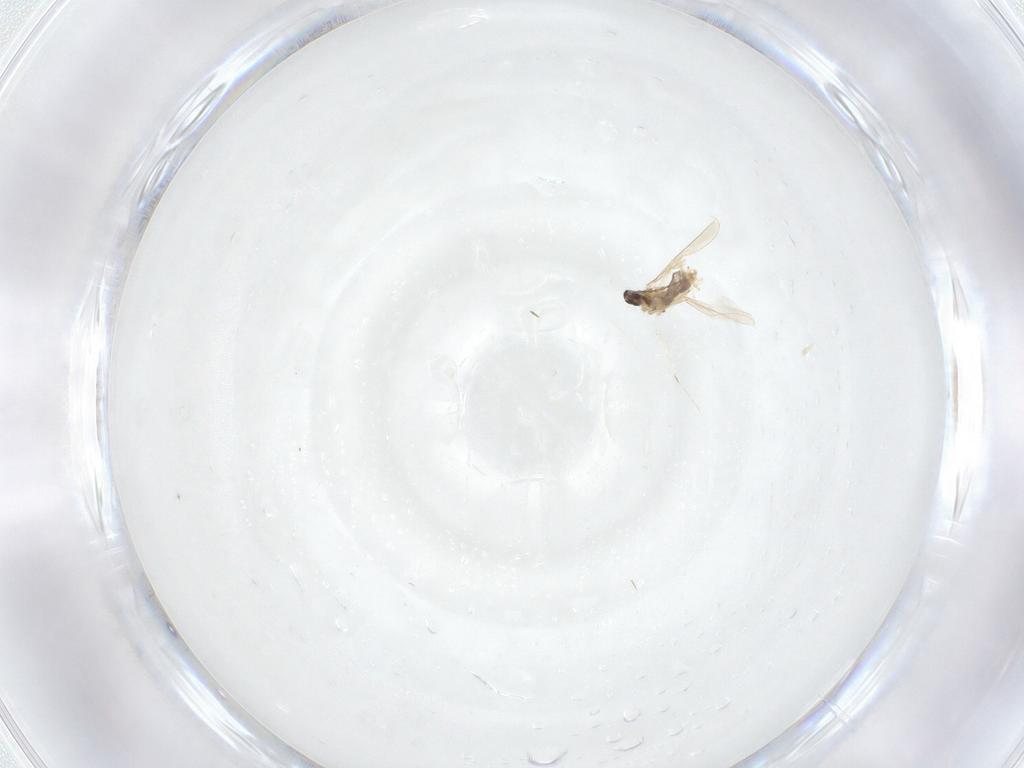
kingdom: Animalia
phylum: Arthropoda
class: Insecta
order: Diptera
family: Cecidomyiidae
